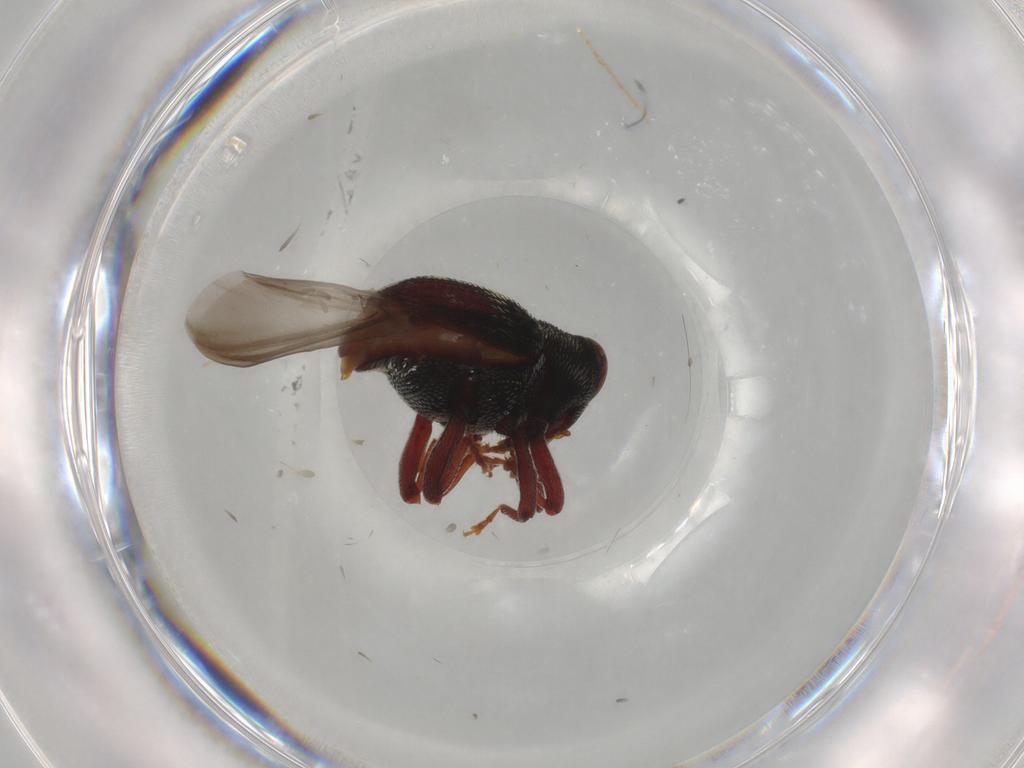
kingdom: Animalia
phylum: Arthropoda
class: Insecta
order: Coleoptera
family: Curculionidae
